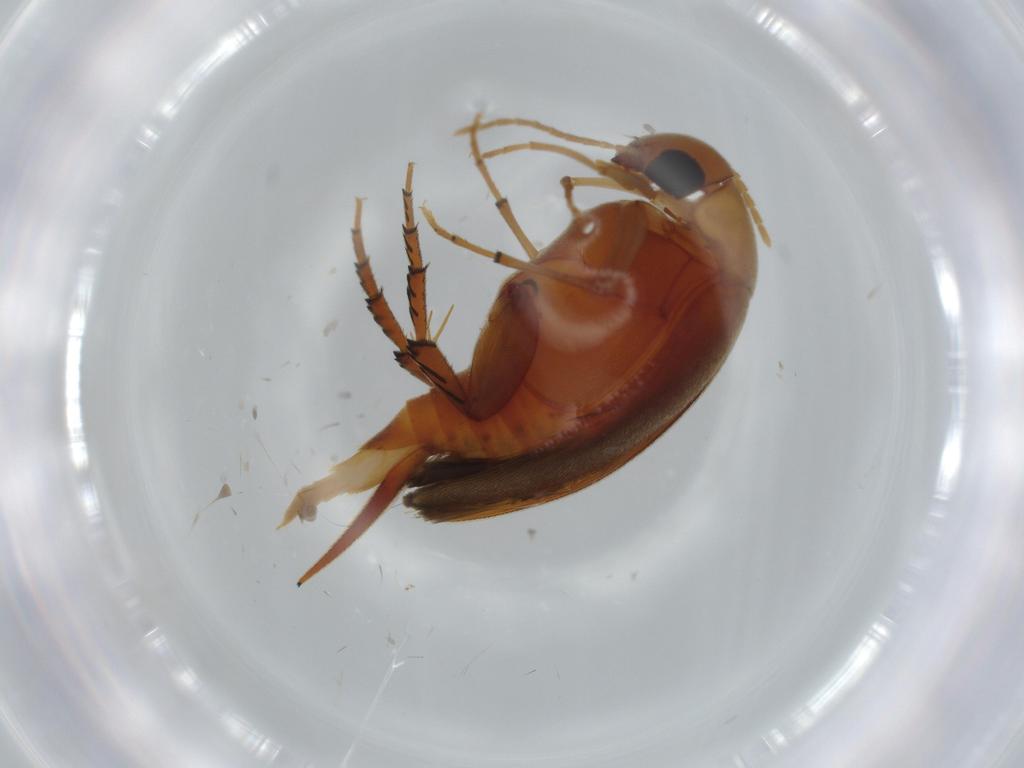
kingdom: Animalia
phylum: Arthropoda
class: Insecta
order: Coleoptera
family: Mordellidae
